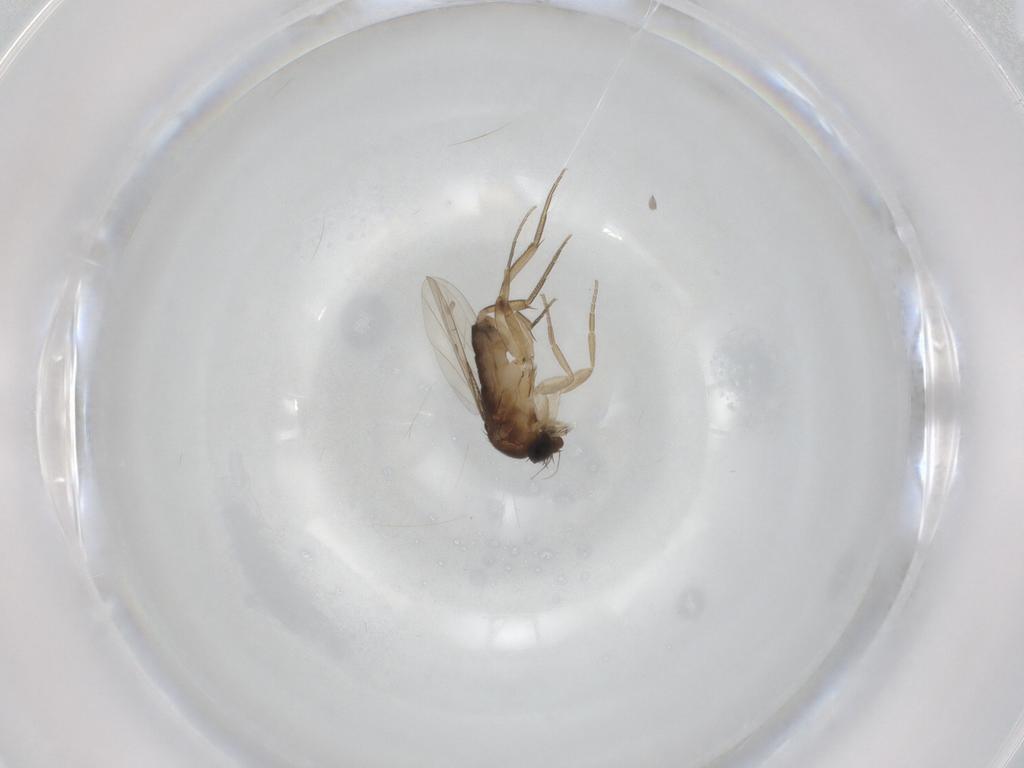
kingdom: Animalia
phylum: Arthropoda
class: Insecta
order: Diptera
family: Phoridae
